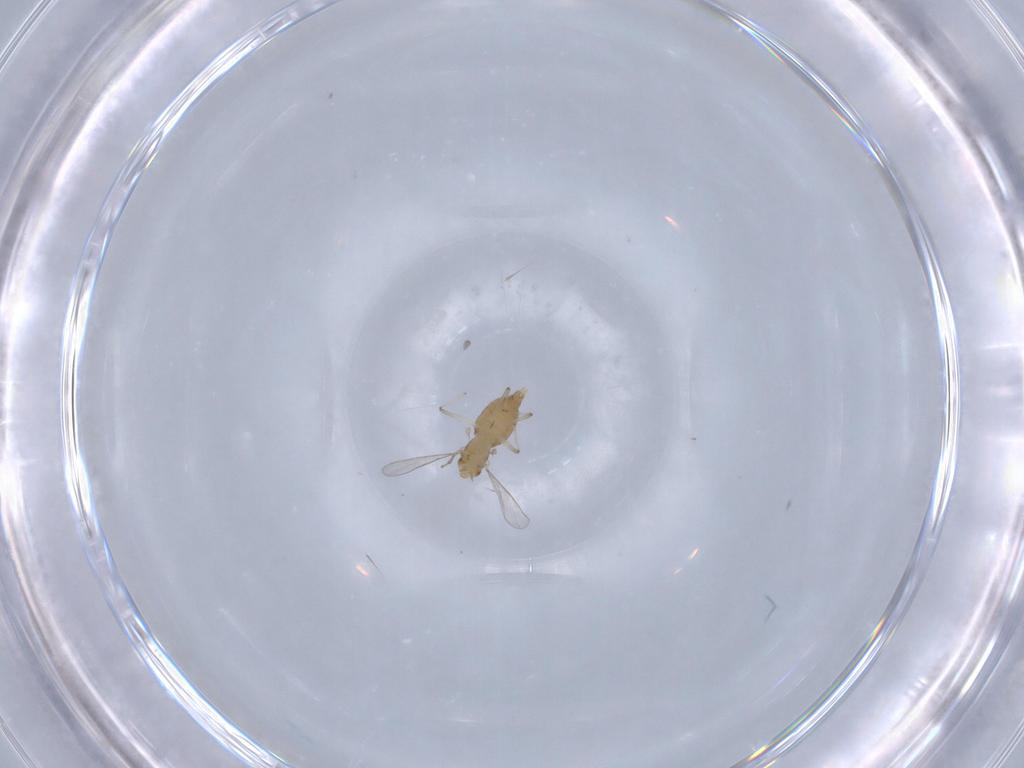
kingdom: Animalia
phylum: Arthropoda
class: Insecta
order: Diptera
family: Chironomidae
